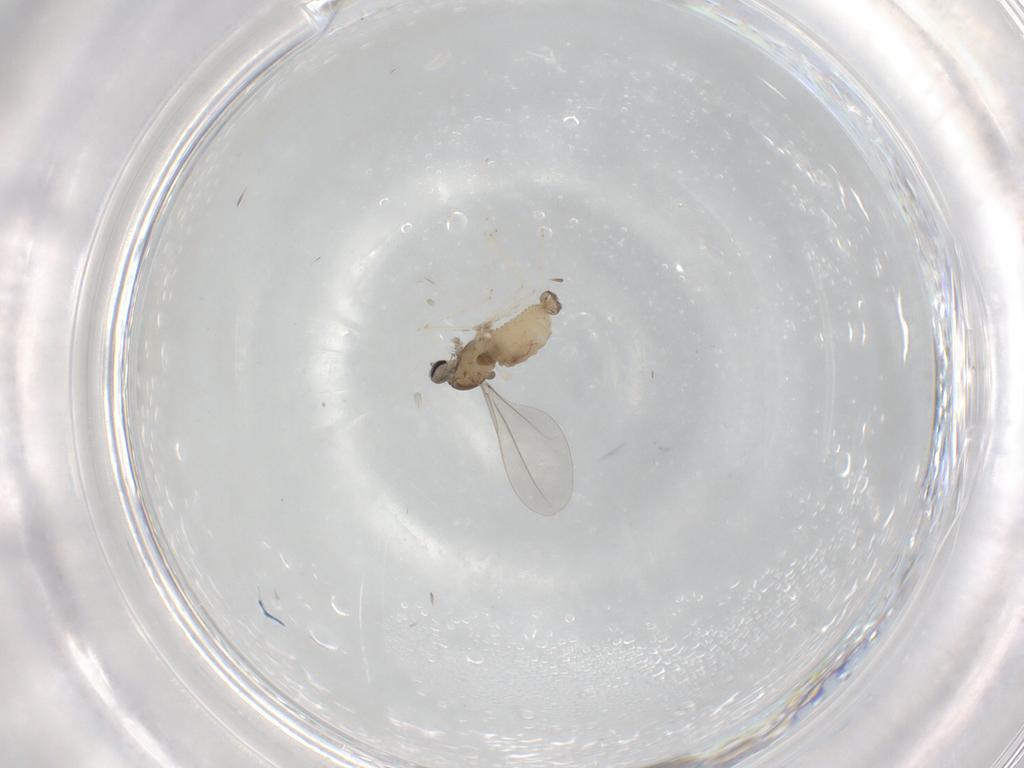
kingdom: Animalia
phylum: Arthropoda
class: Insecta
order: Diptera
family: Cecidomyiidae
